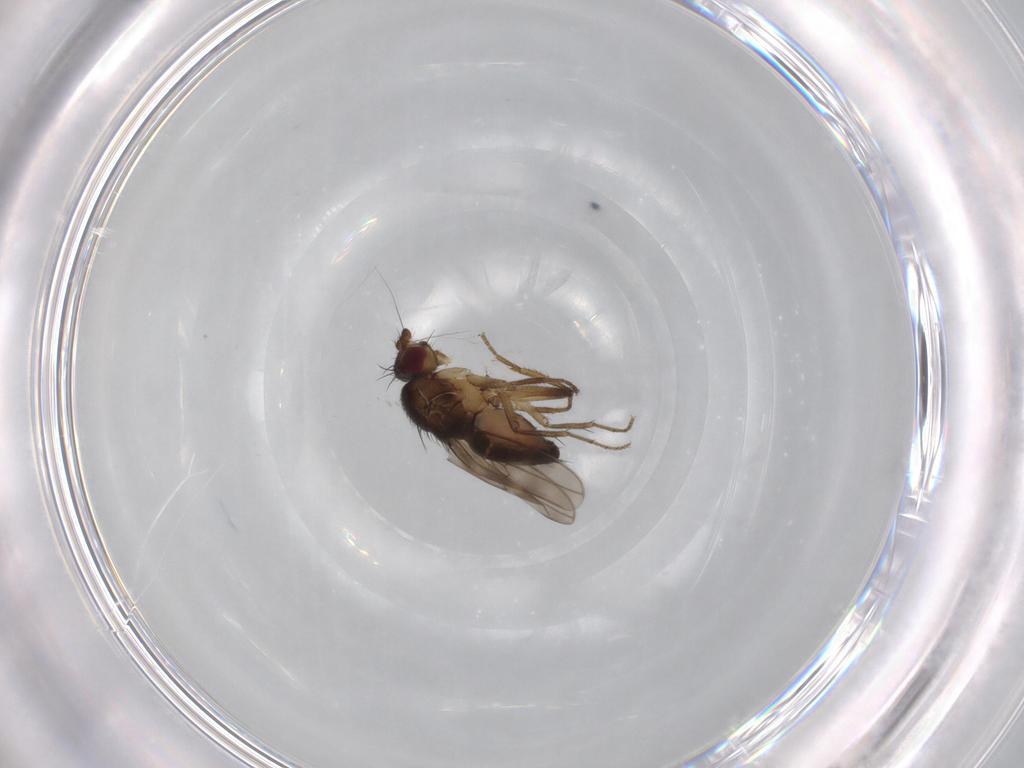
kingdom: Animalia
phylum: Arthropoda
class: Insecta
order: Diptera
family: Sphaeroceridae
